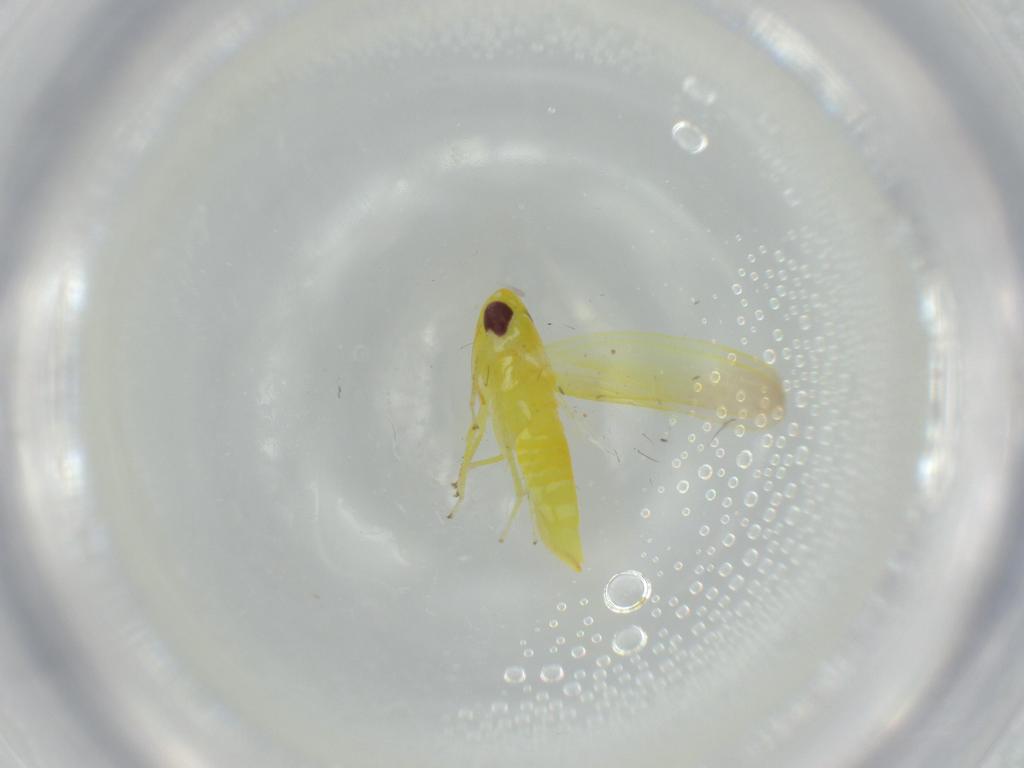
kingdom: Animalia
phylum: Arthropoda
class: Insecta
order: Hemiptera
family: Cicadellidae
